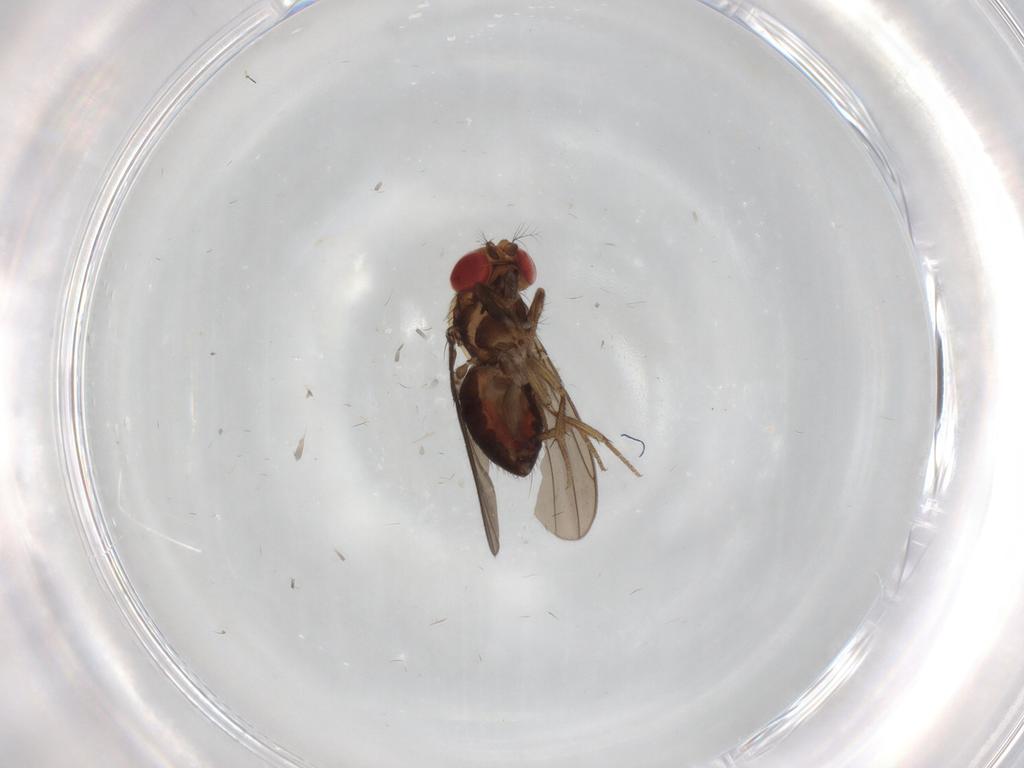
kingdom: Animalia
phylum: Arthropoda
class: Insecta
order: Diptera
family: Drosophilidae
